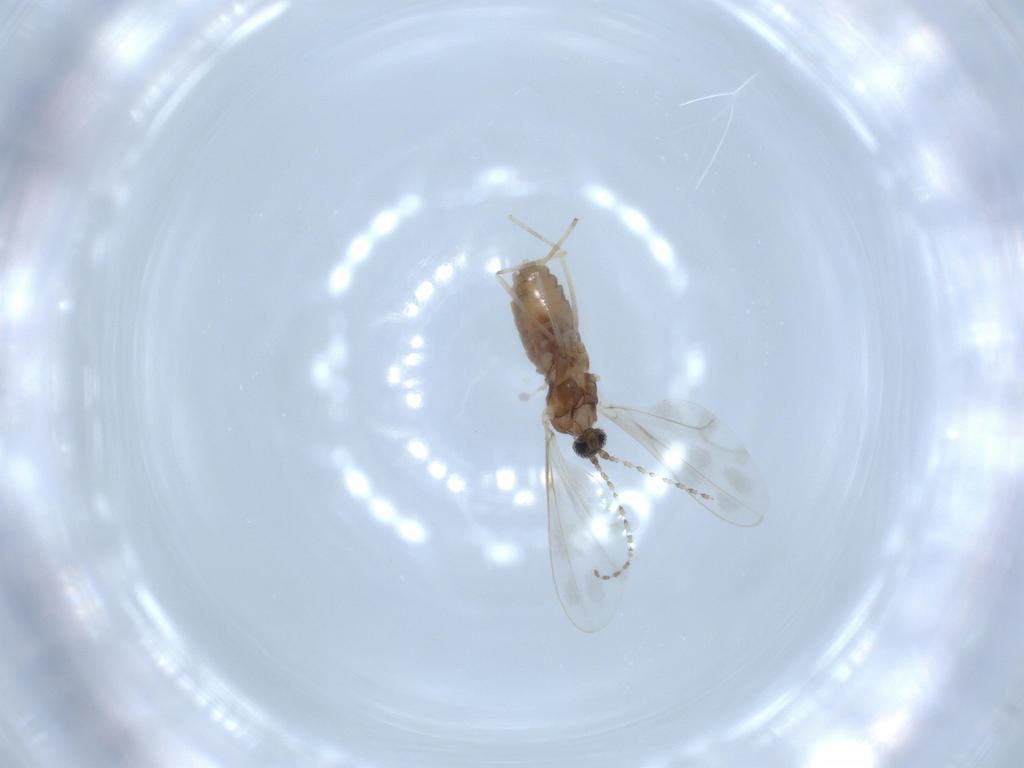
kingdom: Animalia
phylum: Arthropoda
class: Insecta
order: Diptera
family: Cecidomyiidae
